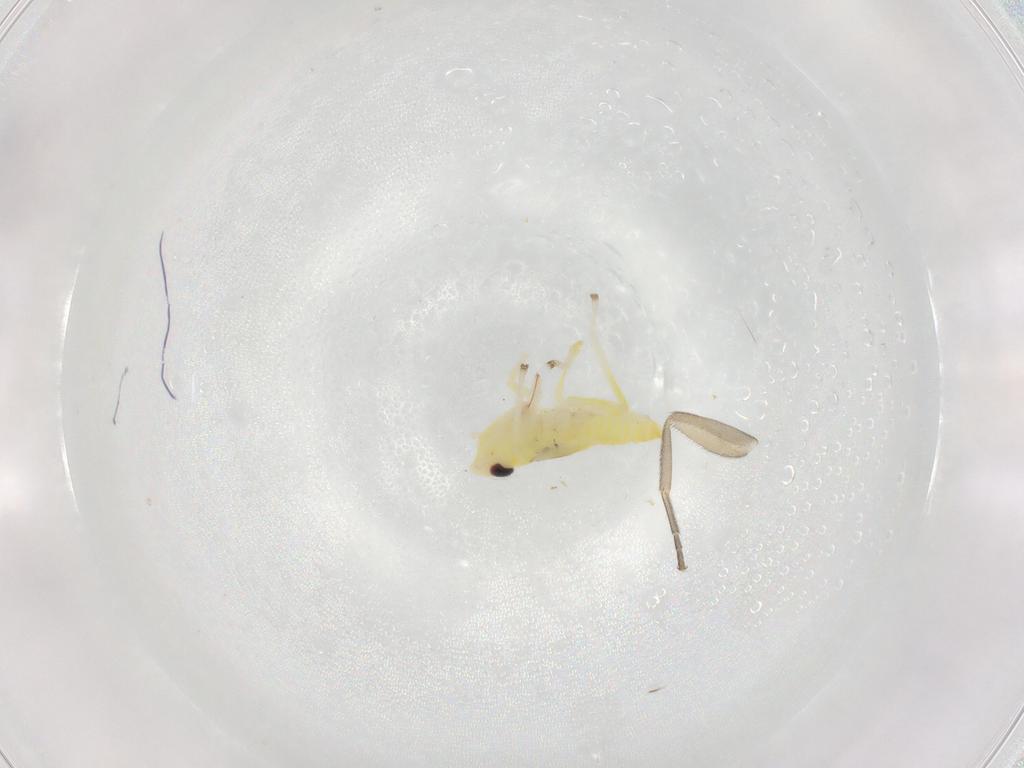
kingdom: Animalia
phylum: Arthropoda
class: Insecta
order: Hemiptera
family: Cicadellidae
